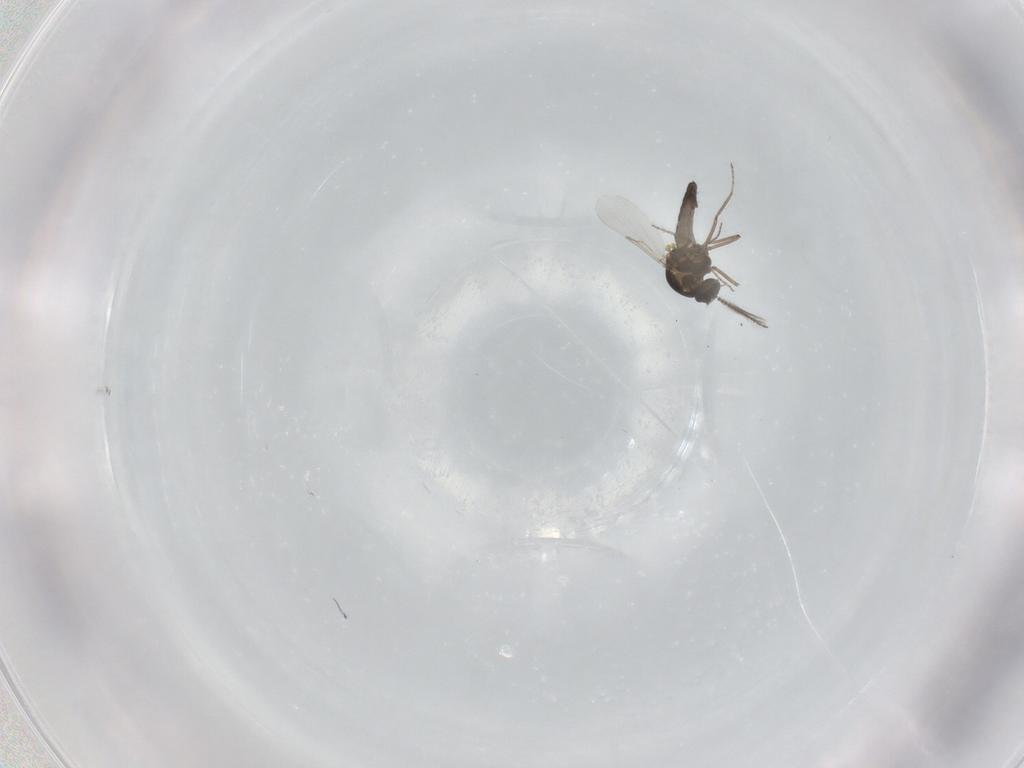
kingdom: Animalia
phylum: Arthropoda
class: Insecta
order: Diptera
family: Ceratopogonidae
